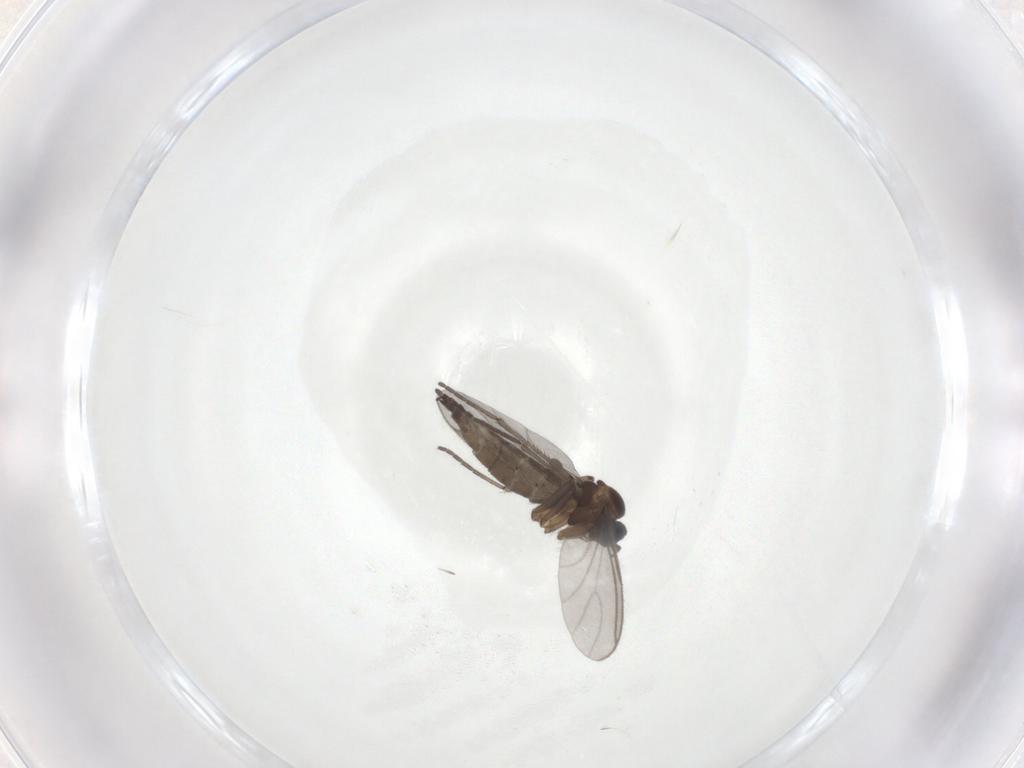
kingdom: Animalia
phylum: Arthropoda
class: Insecta
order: Diptera
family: Sciaridae
